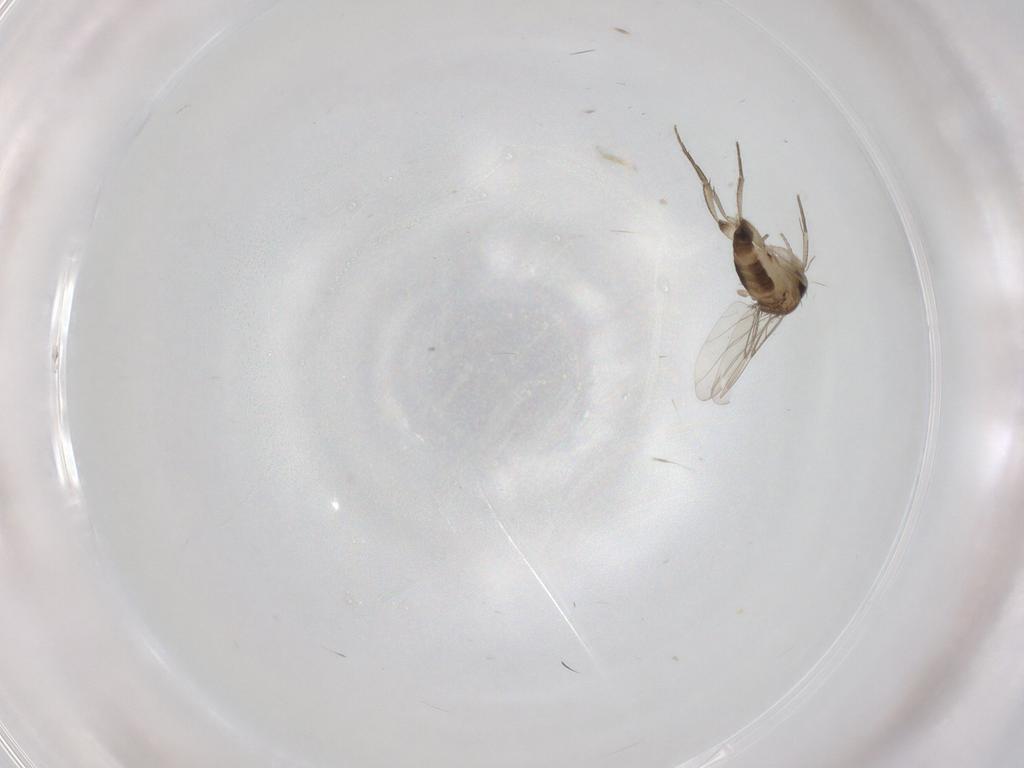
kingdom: Animalia
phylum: Arthropoda
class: Insecta
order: Diptera
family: Phoridae
